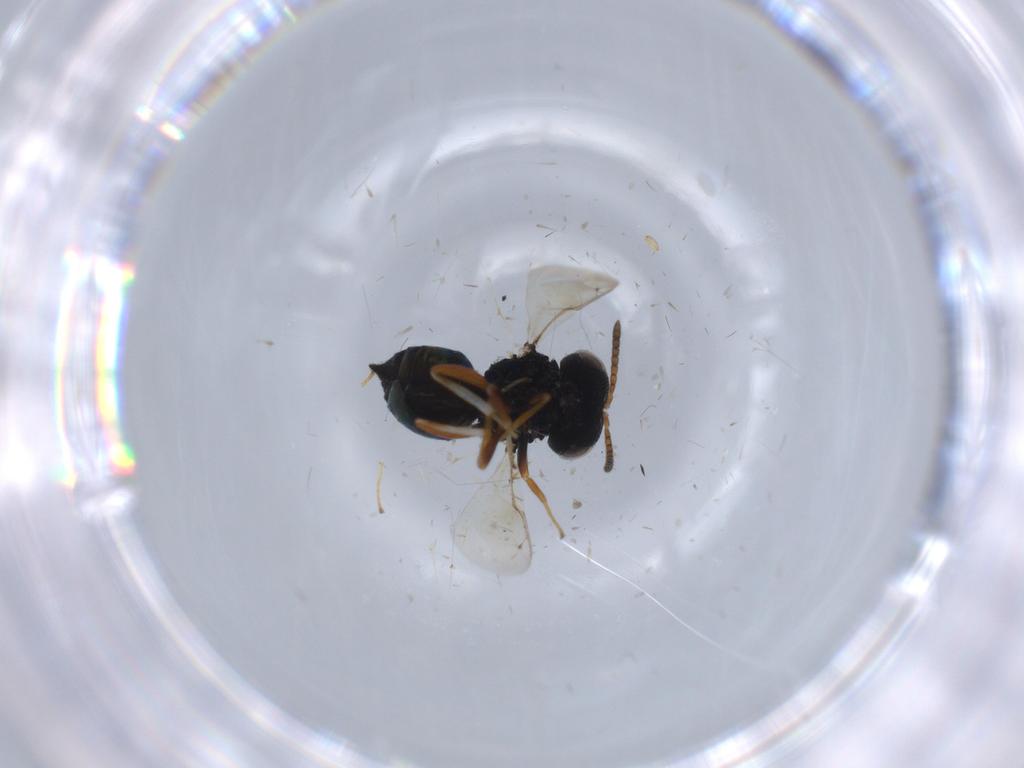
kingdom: Animalia
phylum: Arthropoda
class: Insecta
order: Hymenoptera
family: Pteromalidae
